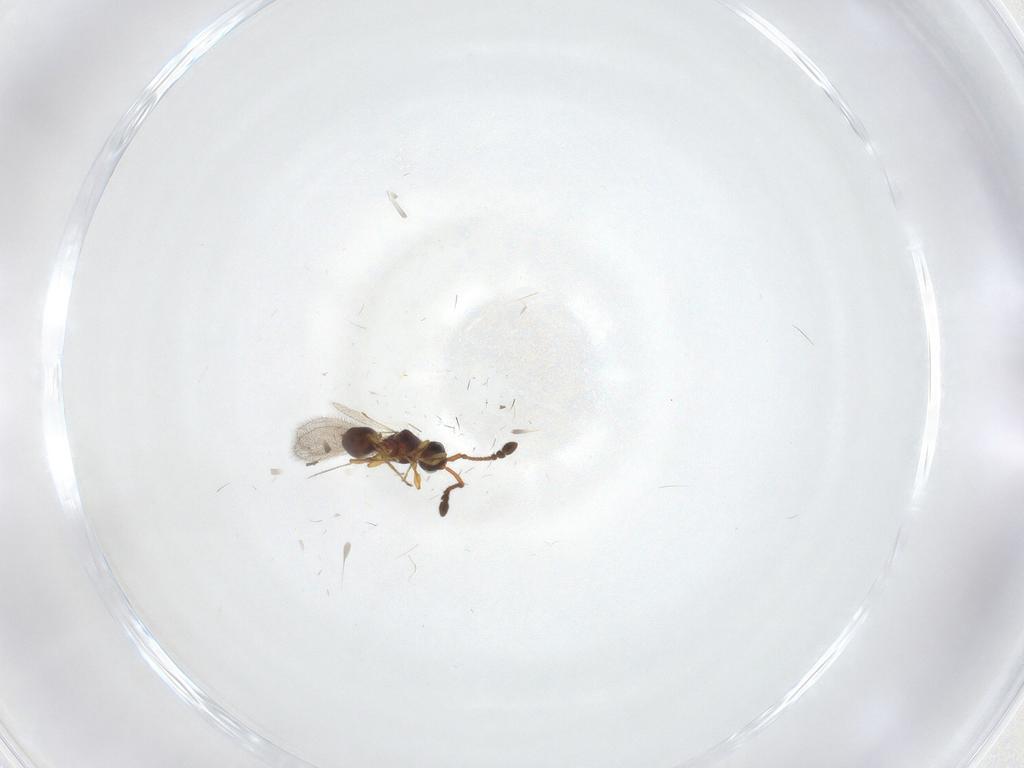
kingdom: Animalia
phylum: Arthropoda
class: Insecta
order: Hymenoptera
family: Diapriidae
